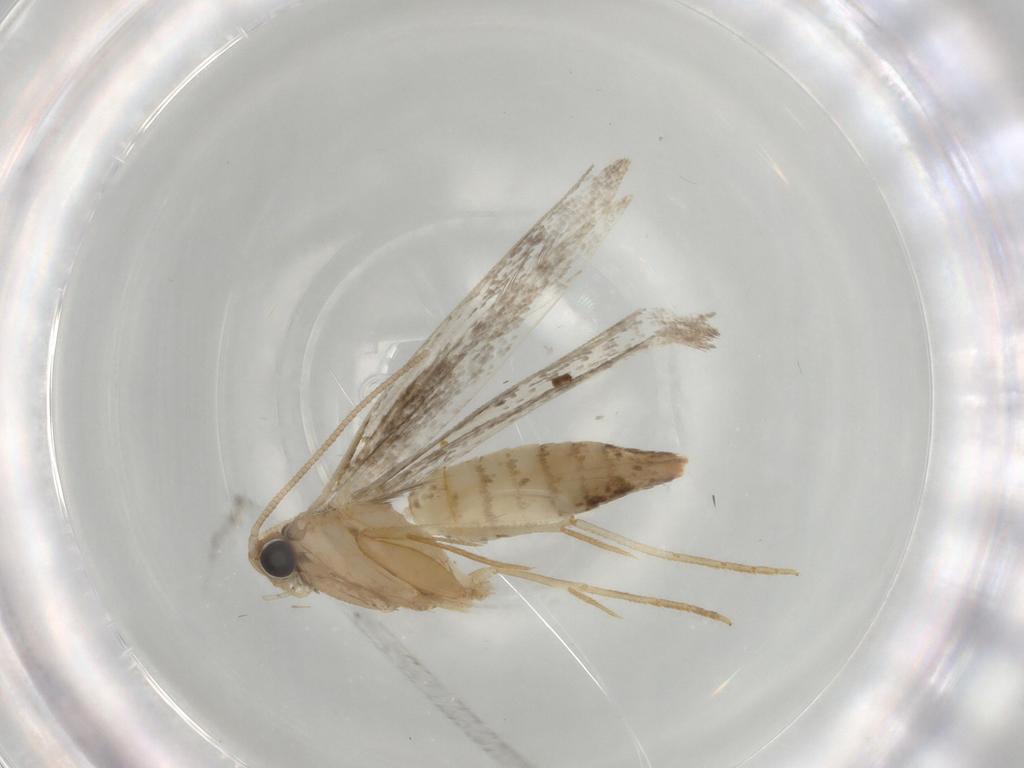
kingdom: Animalia
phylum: Arthropoda
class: Insecta
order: Lepidoptera
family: Tineidae
